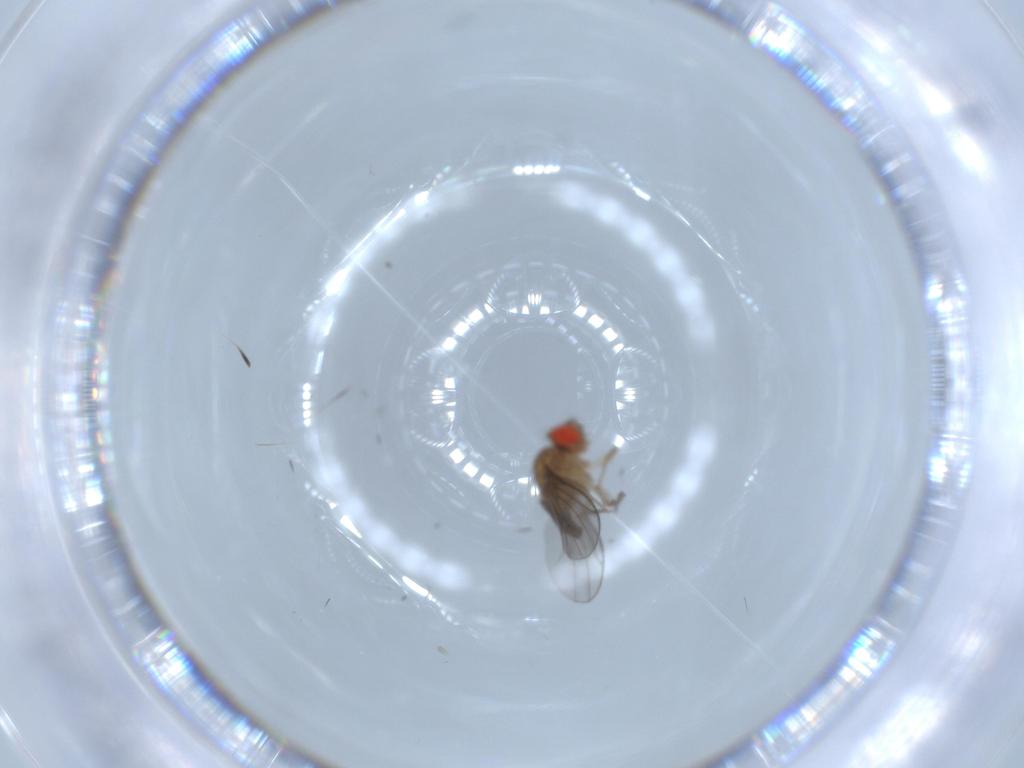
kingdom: Animalia
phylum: Arthropoda
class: Insecta
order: Diptera
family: Drosophilidae
